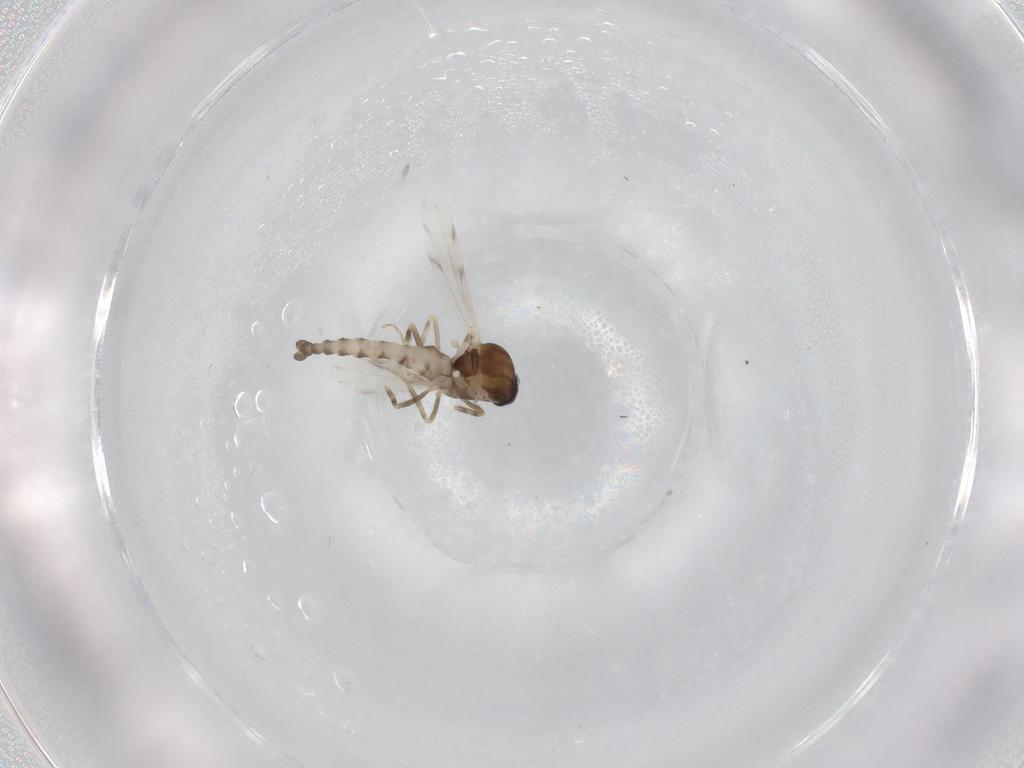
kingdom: Animalia
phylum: Arthropoda
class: Insecta
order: Diptera
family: Ceratopogonidae
